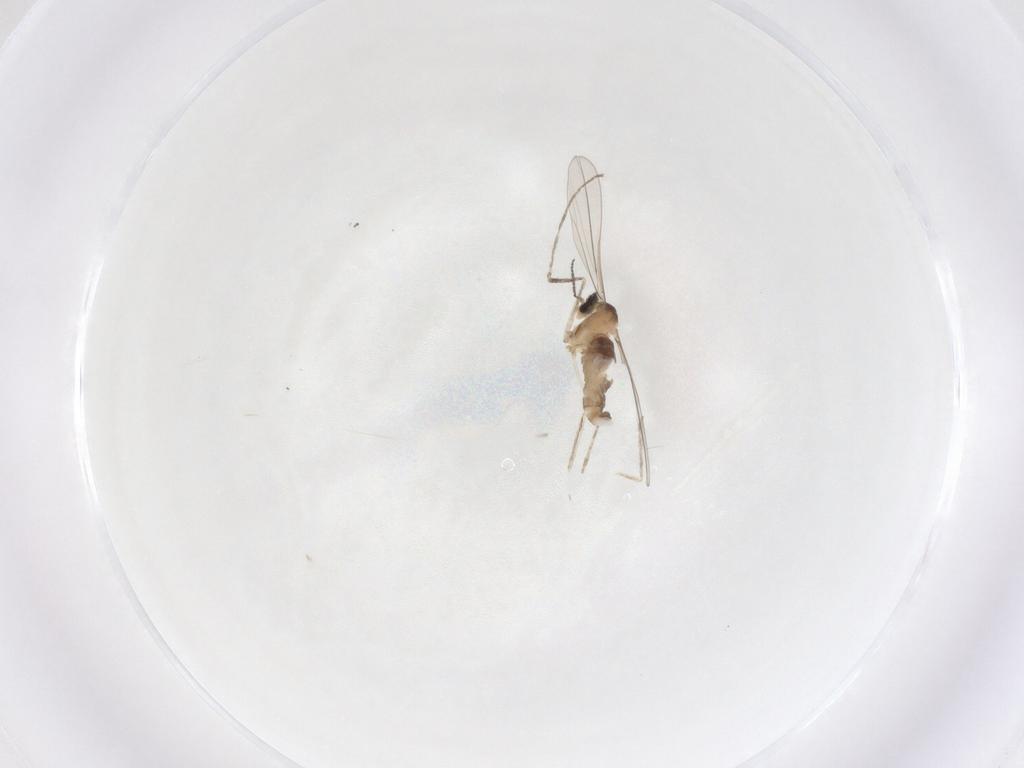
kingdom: Animalia
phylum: Arthropoda
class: Insecta
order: Diptera
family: Cecidomyiidae
